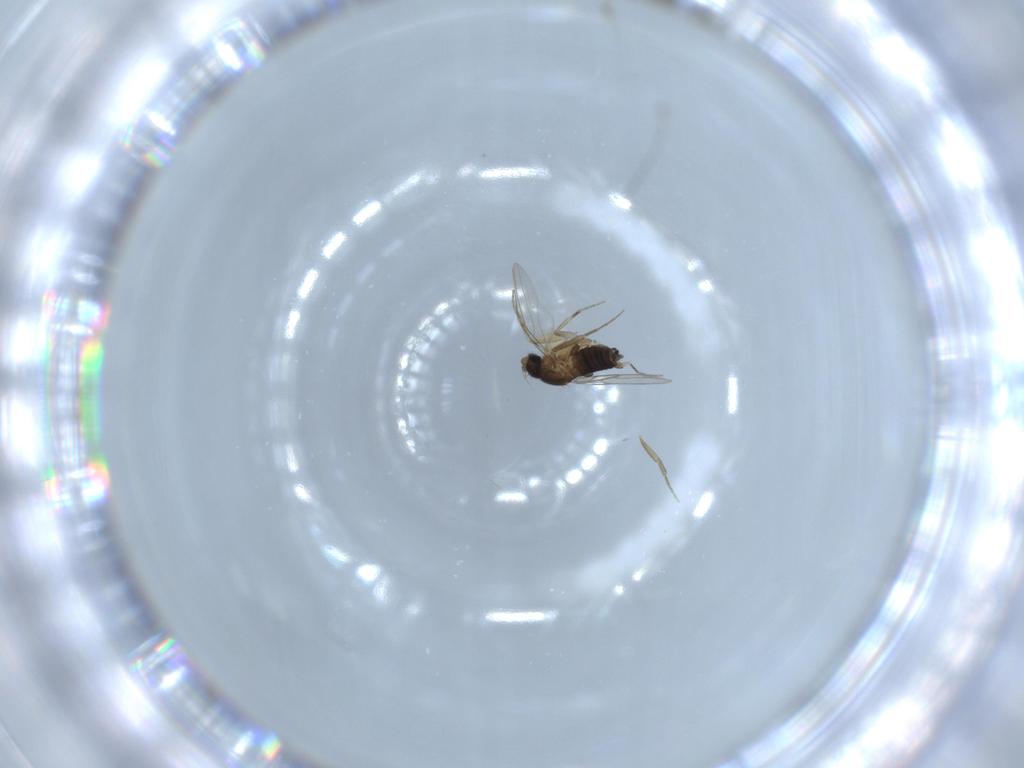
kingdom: Animalia
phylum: Arthropoda
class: Insecta
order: Diptera
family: Phoridae
